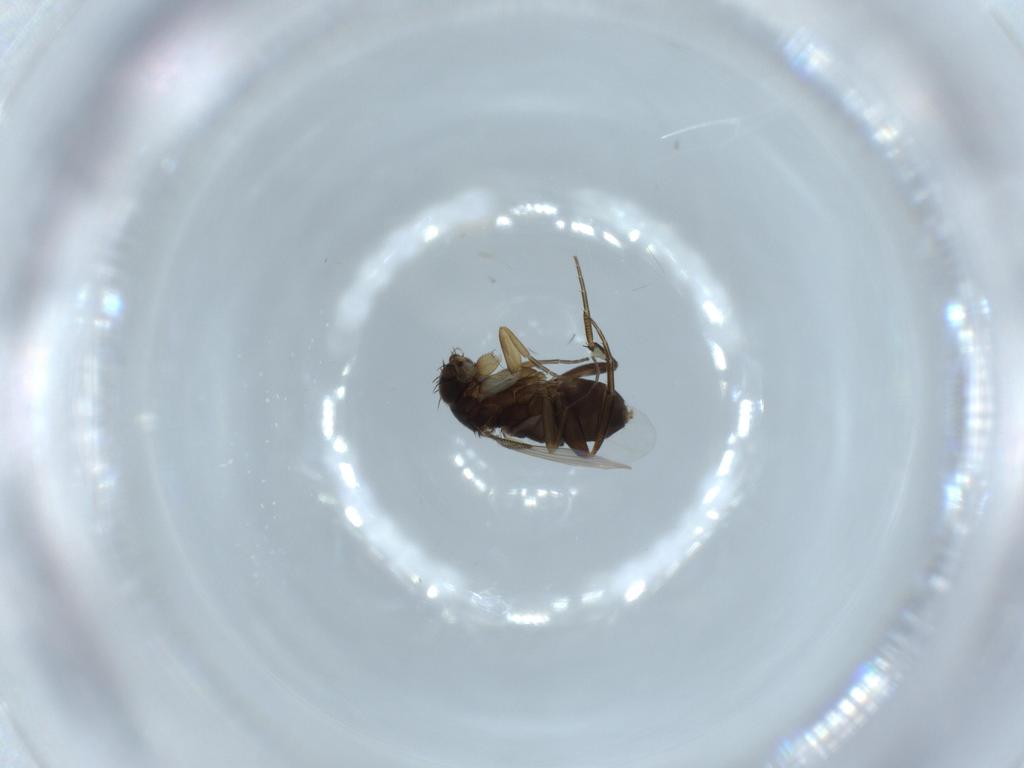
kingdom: Animalia
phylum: Arthropoda
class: Insecta
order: Diptera
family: Phoridae
